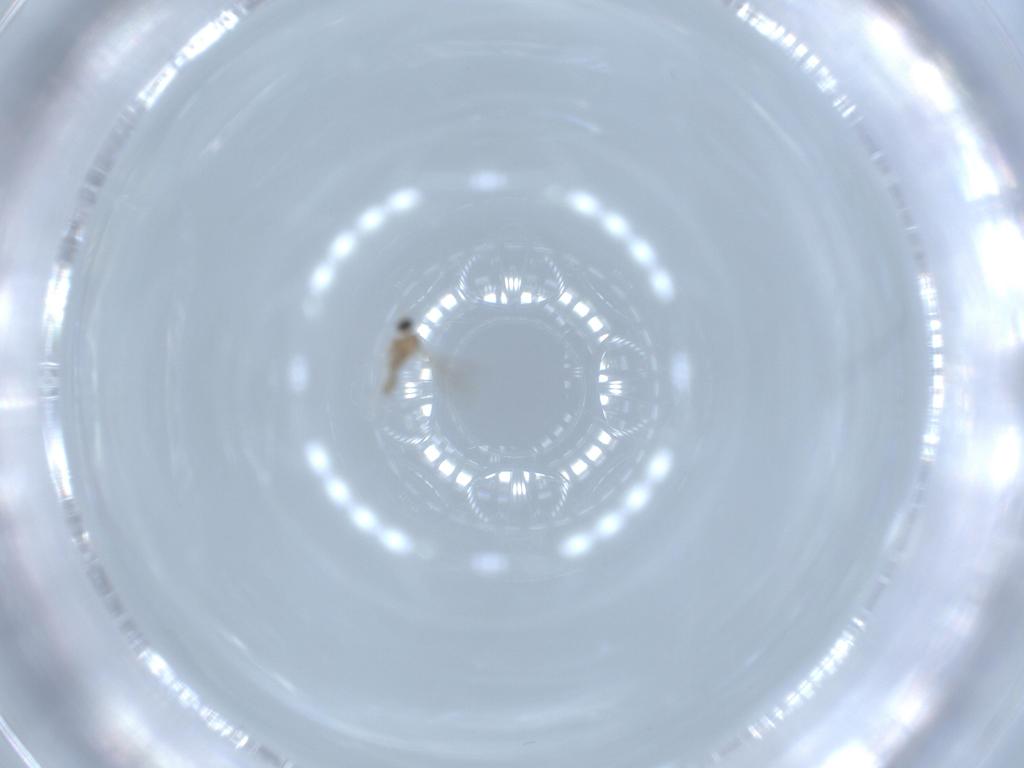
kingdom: Animalia
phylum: Arthropoda
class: Insecta
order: Diptera
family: Cecidomyiidae
